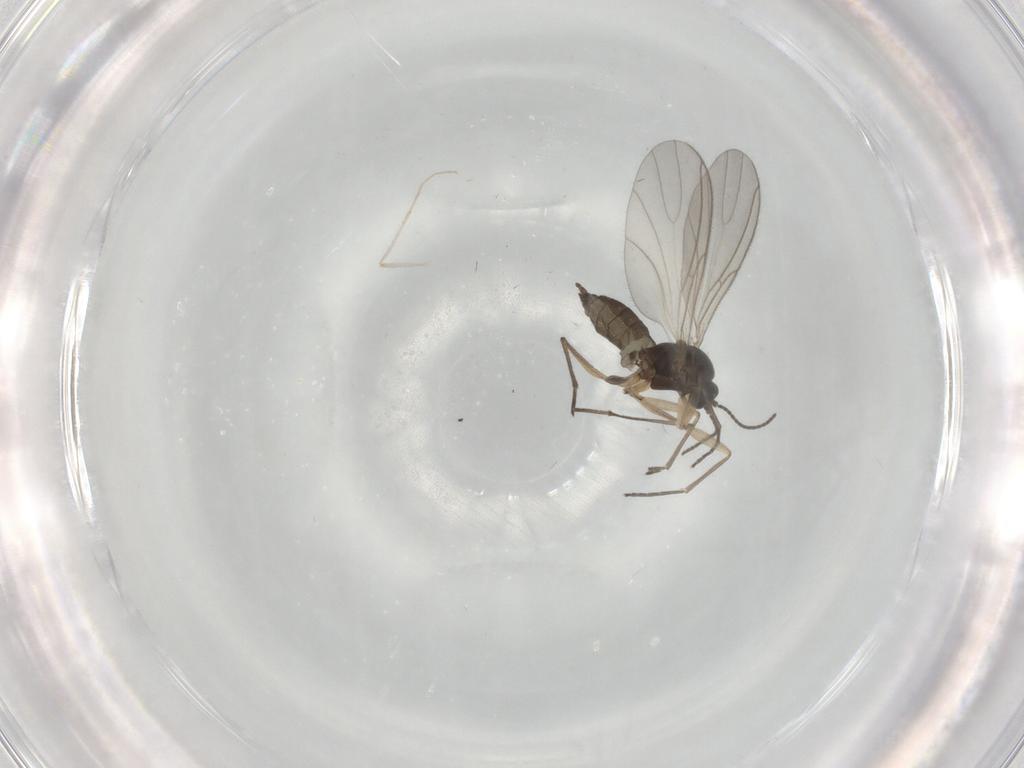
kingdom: Animalia
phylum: Arthropoda
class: Insecta
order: Diptera
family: Sciaridae
